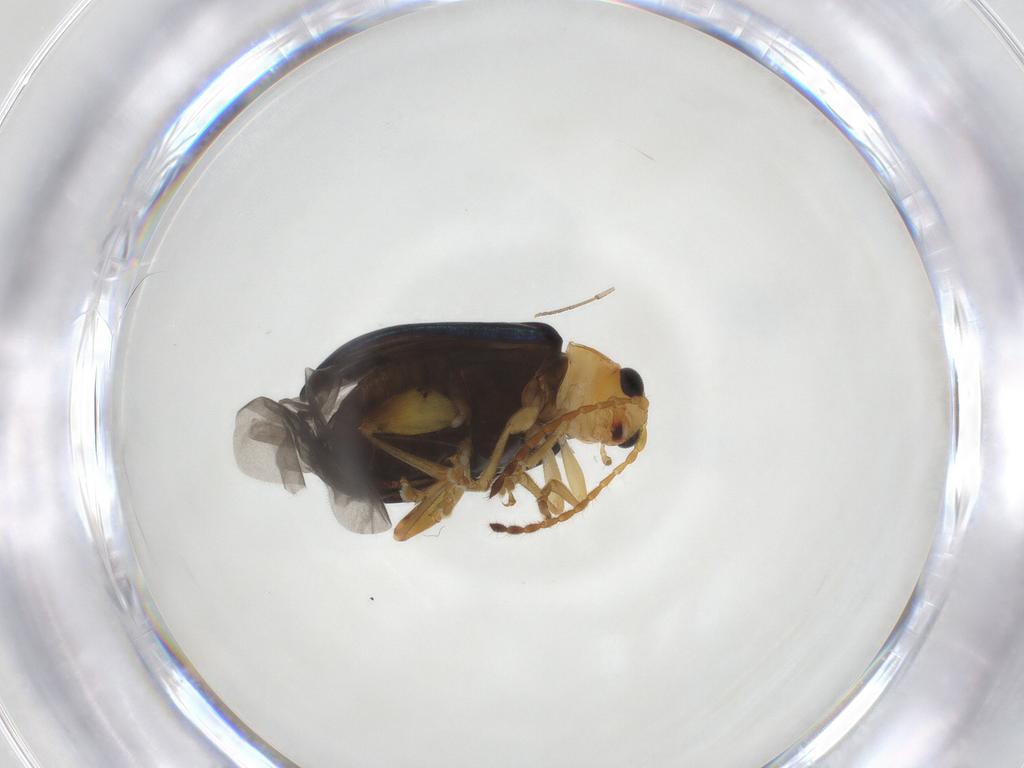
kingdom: Animalia
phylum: Arthropoda
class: Insecta
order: Coleoptera
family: Chrysomelidae
